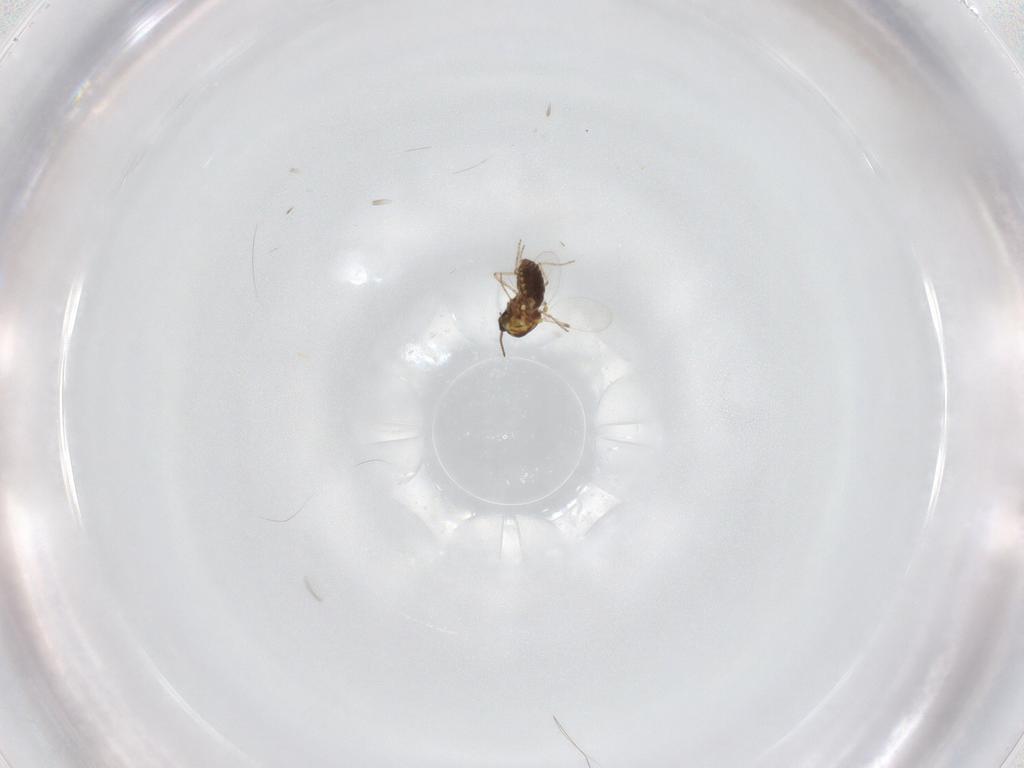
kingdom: Animalia
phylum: Arthropoda
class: Insecta
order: Diptera
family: Ceratopogonidae
